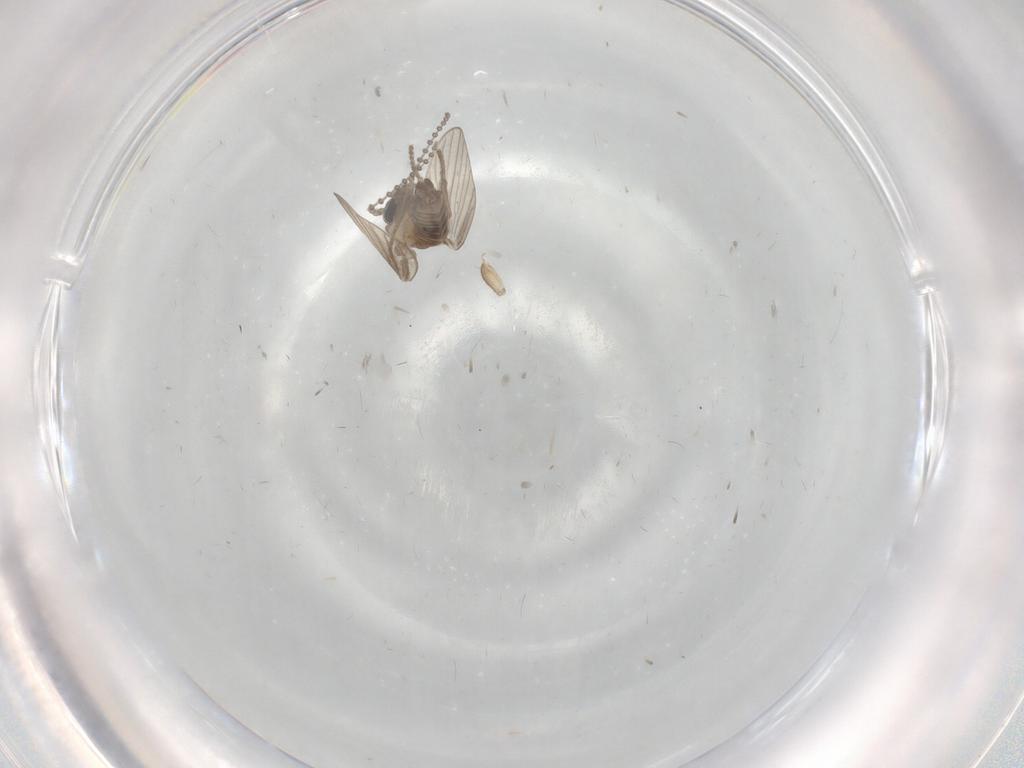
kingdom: Animalia
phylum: Arthropoda
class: Insecta
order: Diptera
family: Phoridae
